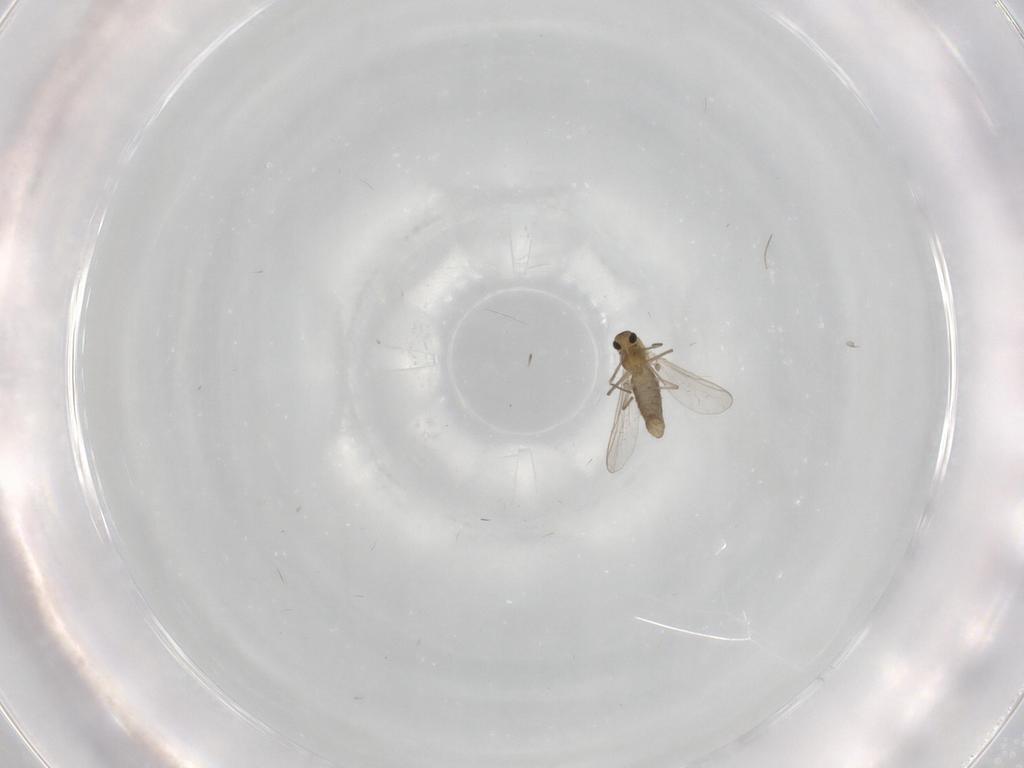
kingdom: Animalia
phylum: Arthropoda
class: Insecta
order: Diptera
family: Chironomidae
